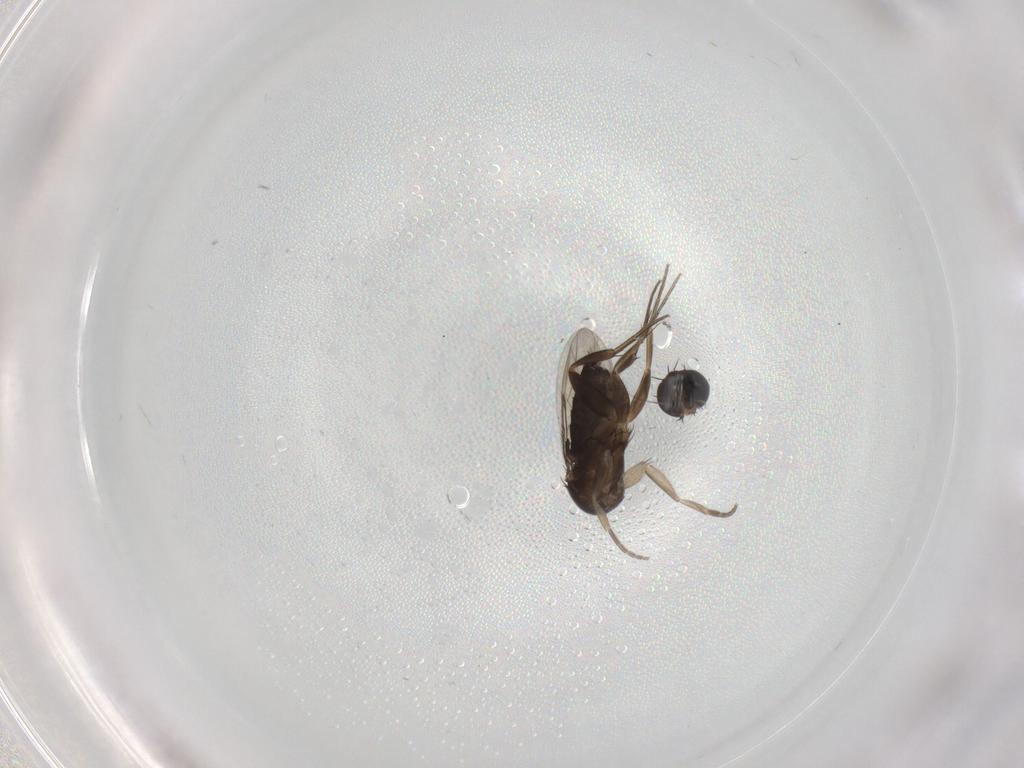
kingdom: Animalia
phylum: Arthropoda
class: Insecta
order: Diptera
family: Phoridae
